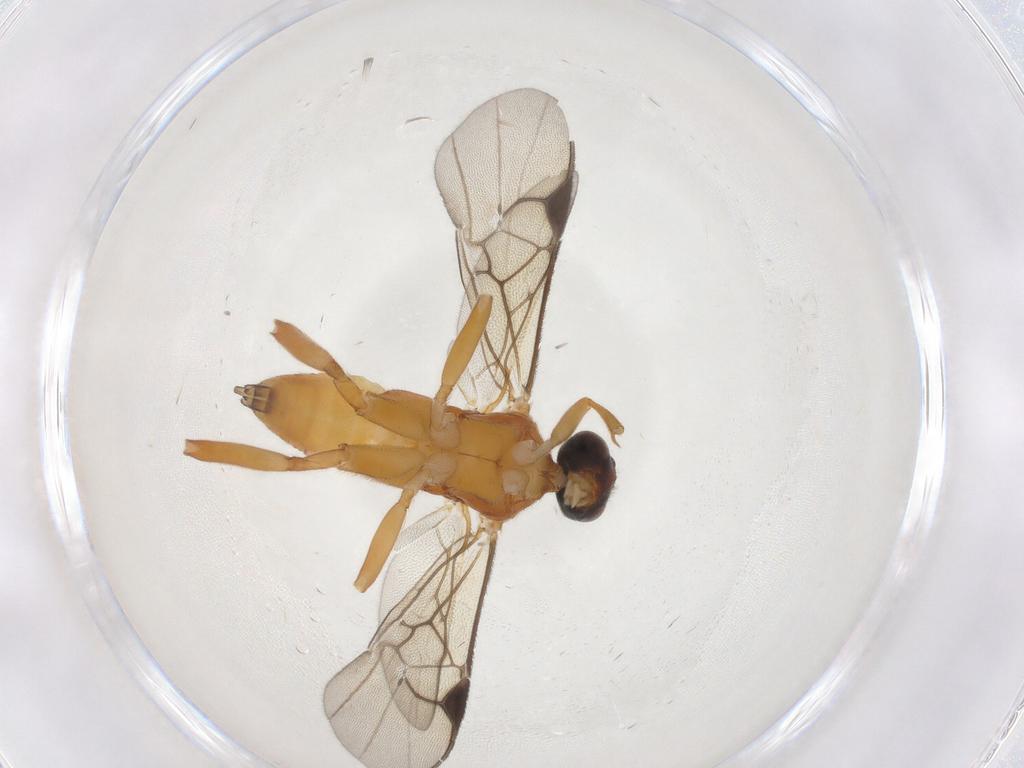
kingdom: Animalia
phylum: Arthropoda
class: Insecta
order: Hymenoptera
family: Braconidae
